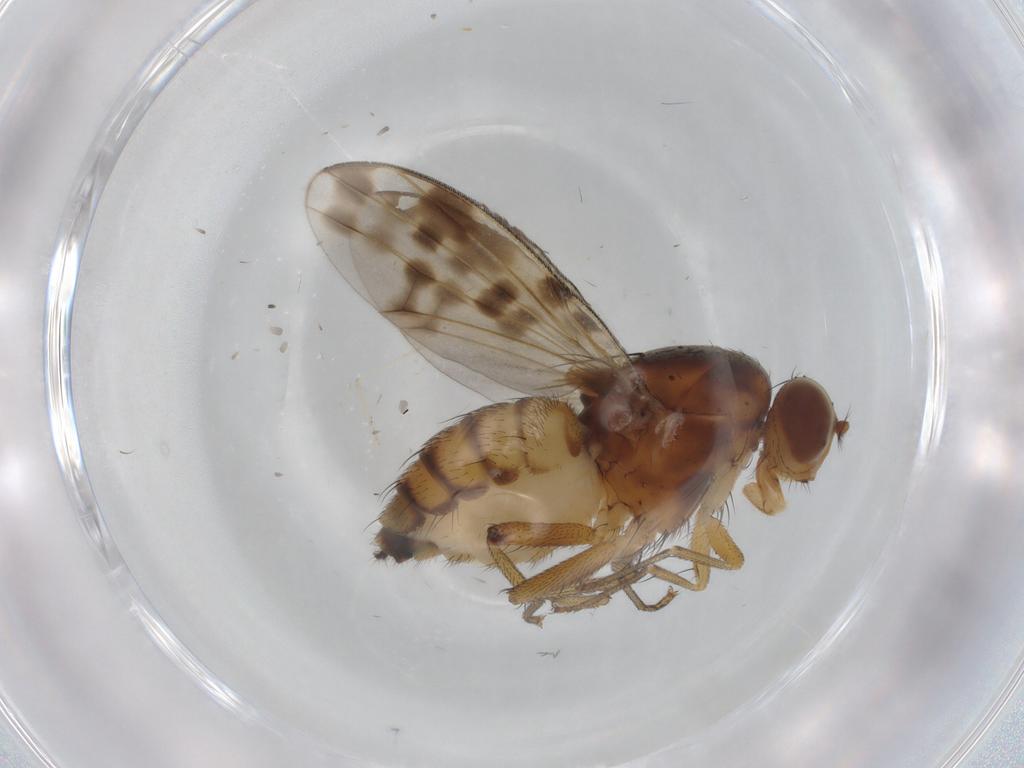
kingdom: Animalia
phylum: Arthropoda
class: Insecta
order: Diptera
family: Lauxaniidae
